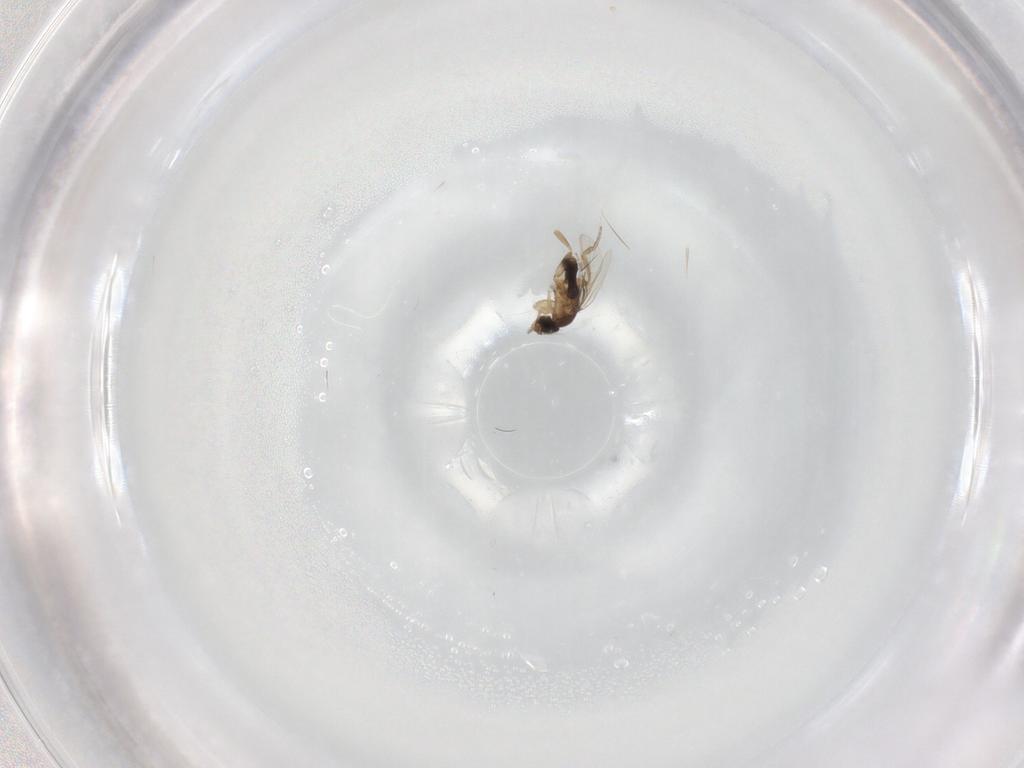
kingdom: Animalia
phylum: Arthropoda
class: Insecta
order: Diptera
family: Phoridae
